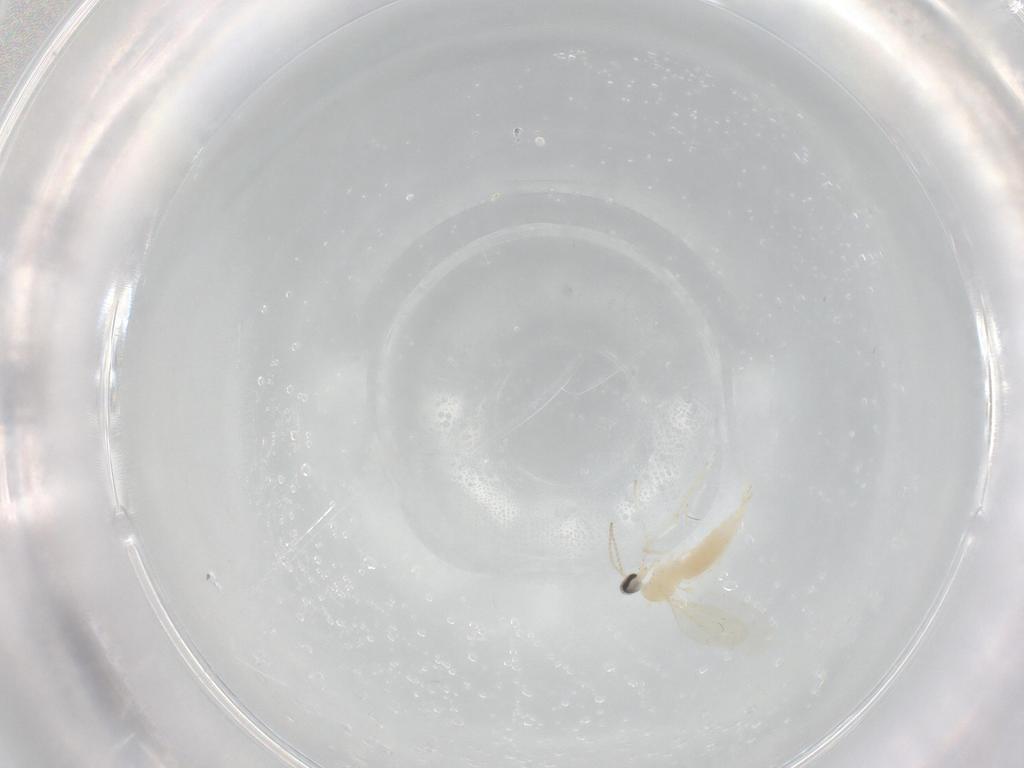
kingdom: Animalia
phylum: Arthropoda
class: Insecta
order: Diptera
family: Cecidomyiidae
